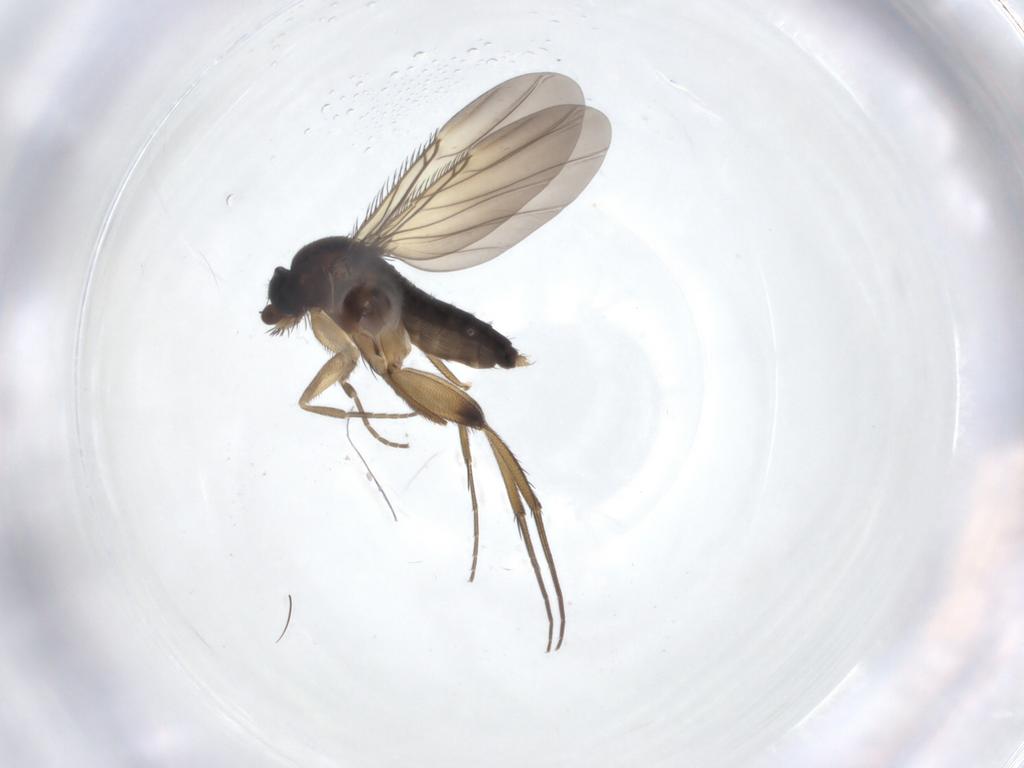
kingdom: Animalia
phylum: Arthropoda
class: Insecta
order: Diptera
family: Phoridae
